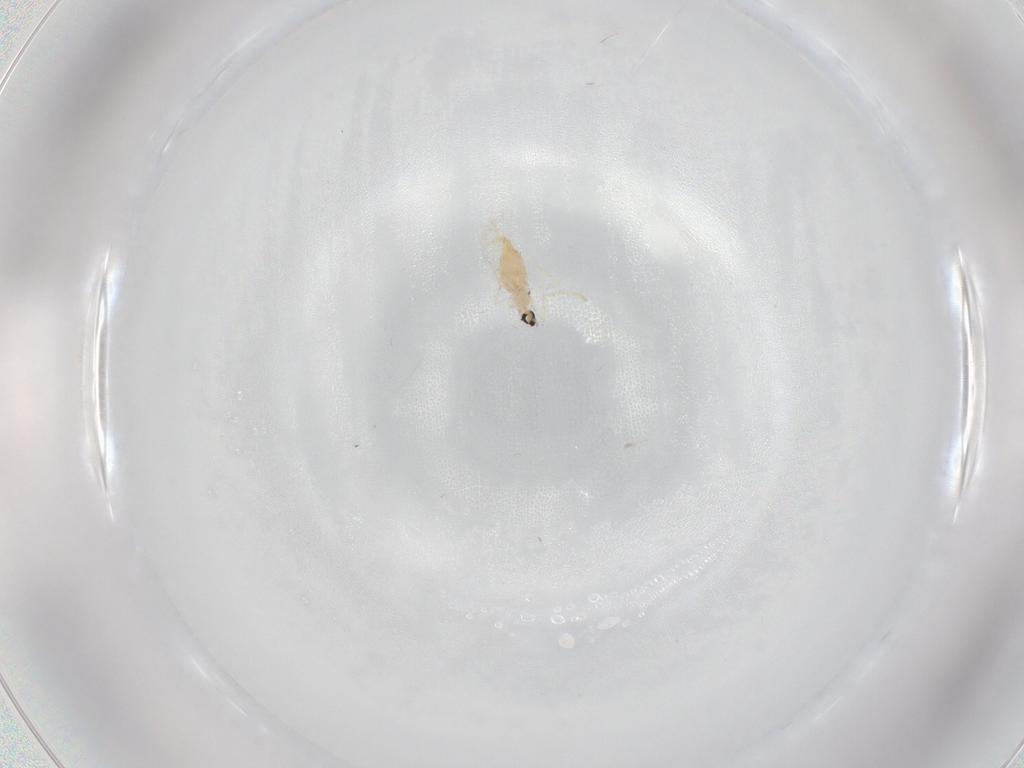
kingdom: Animalia
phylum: Arthropoda
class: Insecta
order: Diptera
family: Cecidomyiidae
